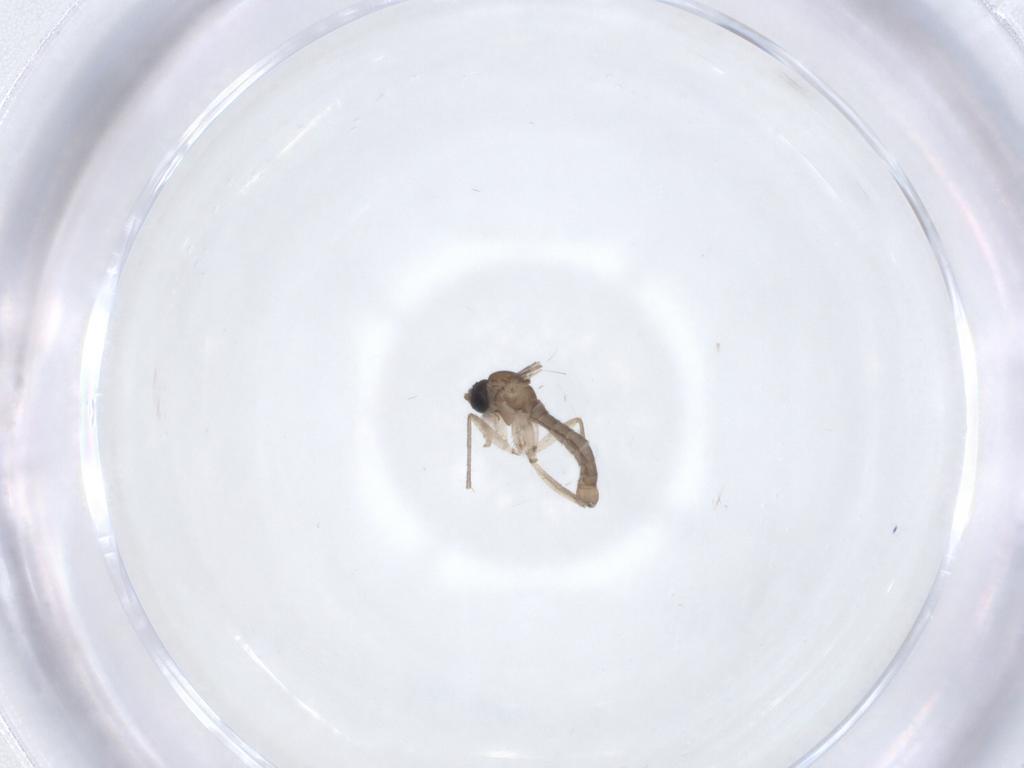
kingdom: Animalia
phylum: Arthropoda
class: Insecta
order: Diptera
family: Sciaridae
